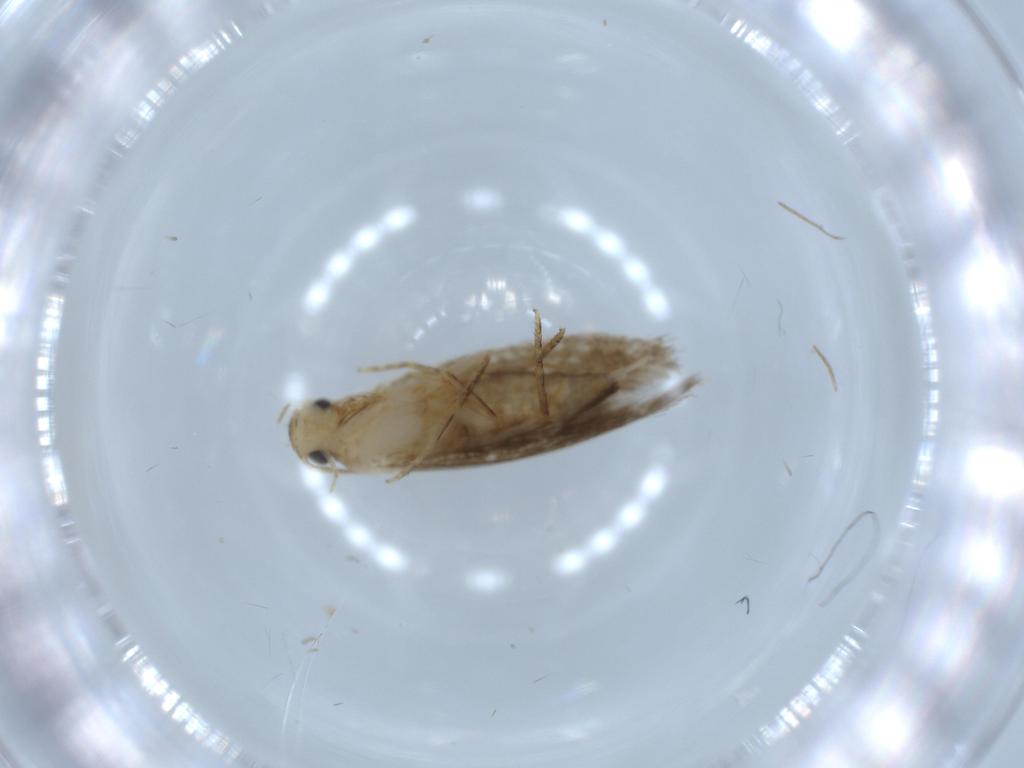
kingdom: Animalia
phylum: Arthropoda
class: Insecta
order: Lepidoptera
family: Tineidae
